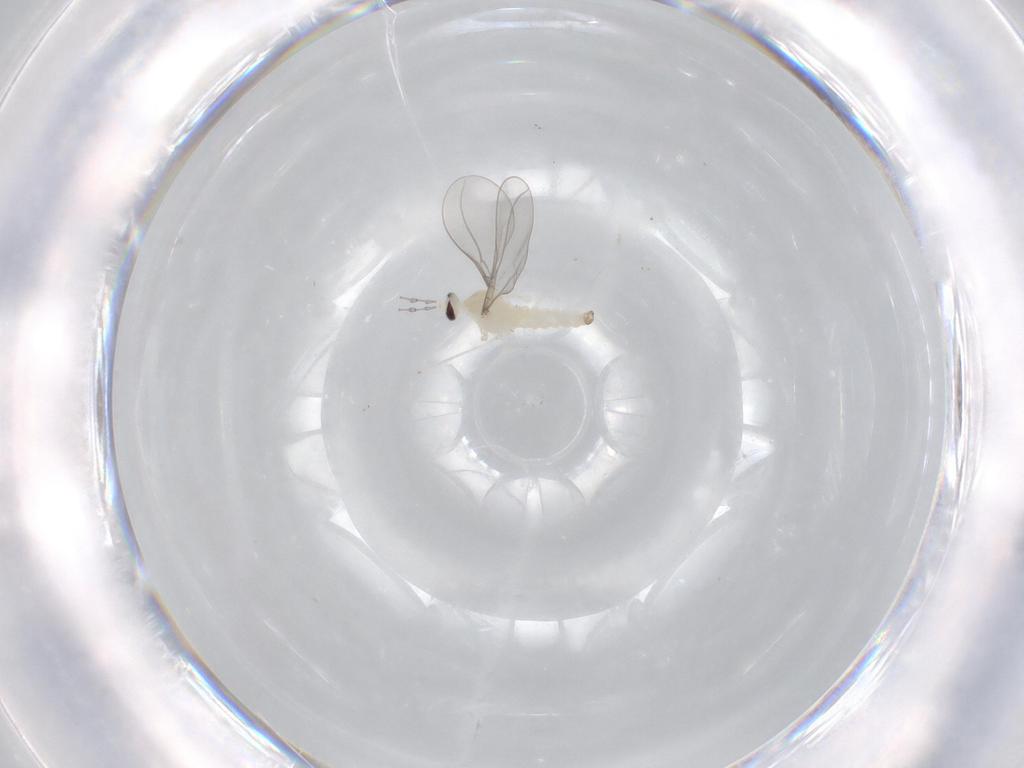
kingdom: Animalia
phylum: Arthropoda
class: Insecta
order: Diptera
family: Cecidomyiidae
